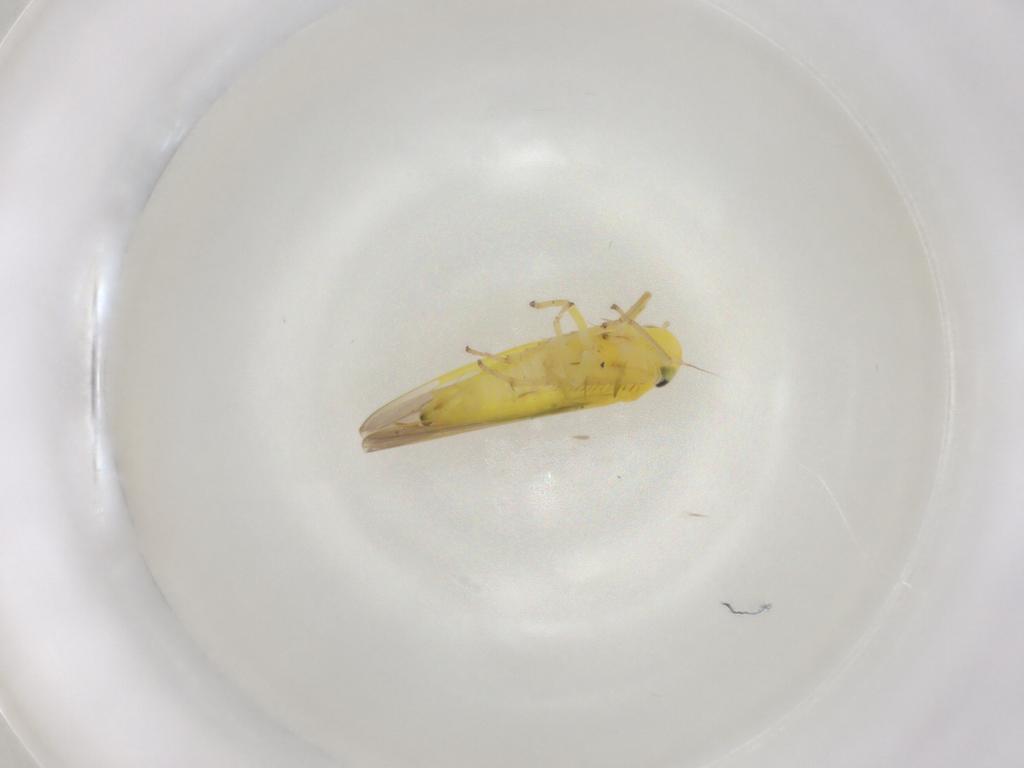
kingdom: Animalia
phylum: Arthropoda
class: Insecta
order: Hemiptera
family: Cicadellidae
